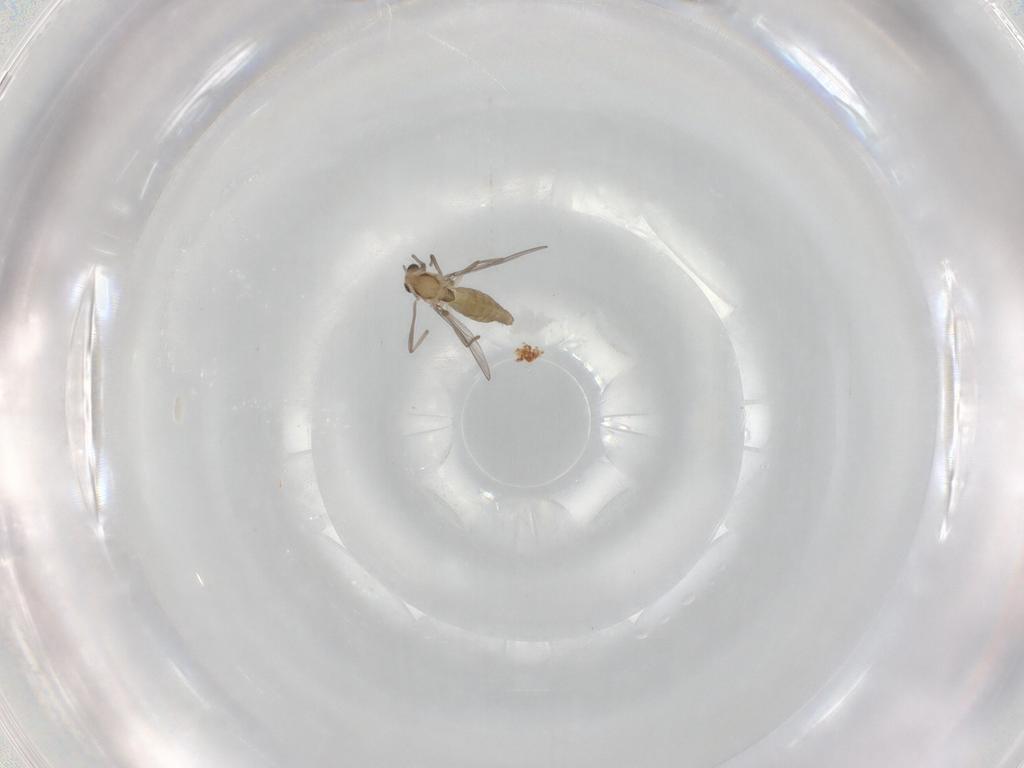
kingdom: Animalia
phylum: Arthropoda
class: Insecta
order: Diptera
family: Chironomidae
